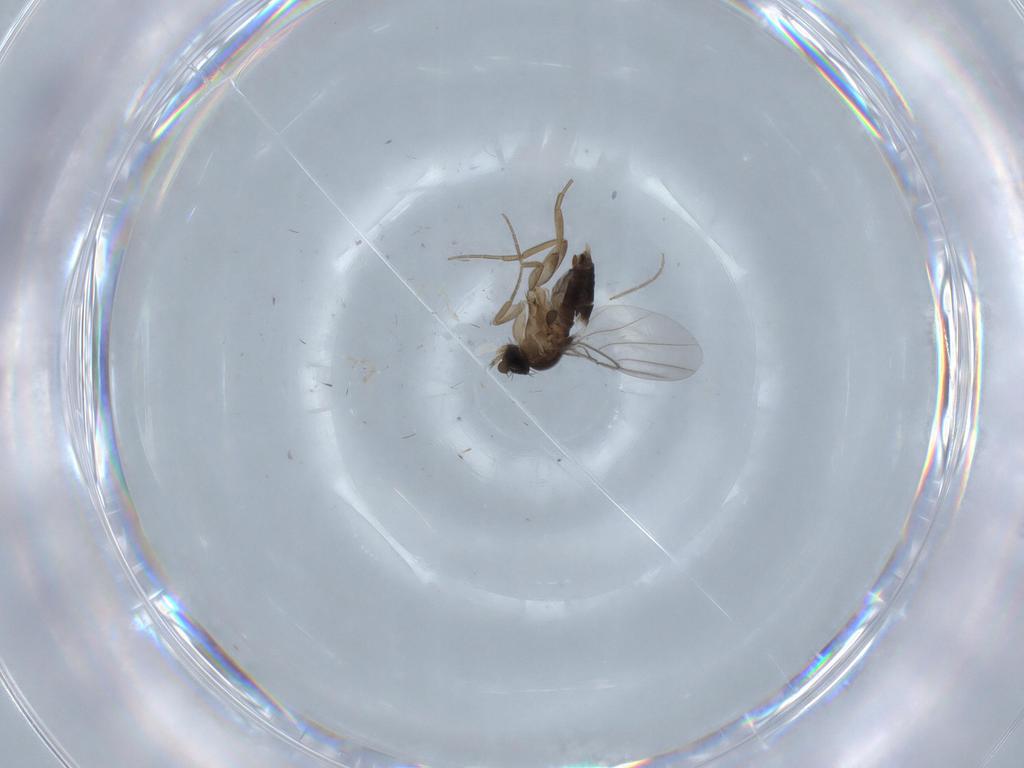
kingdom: Animalia
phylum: Arthropoda
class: Insecta
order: Diptera
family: Phoridae
